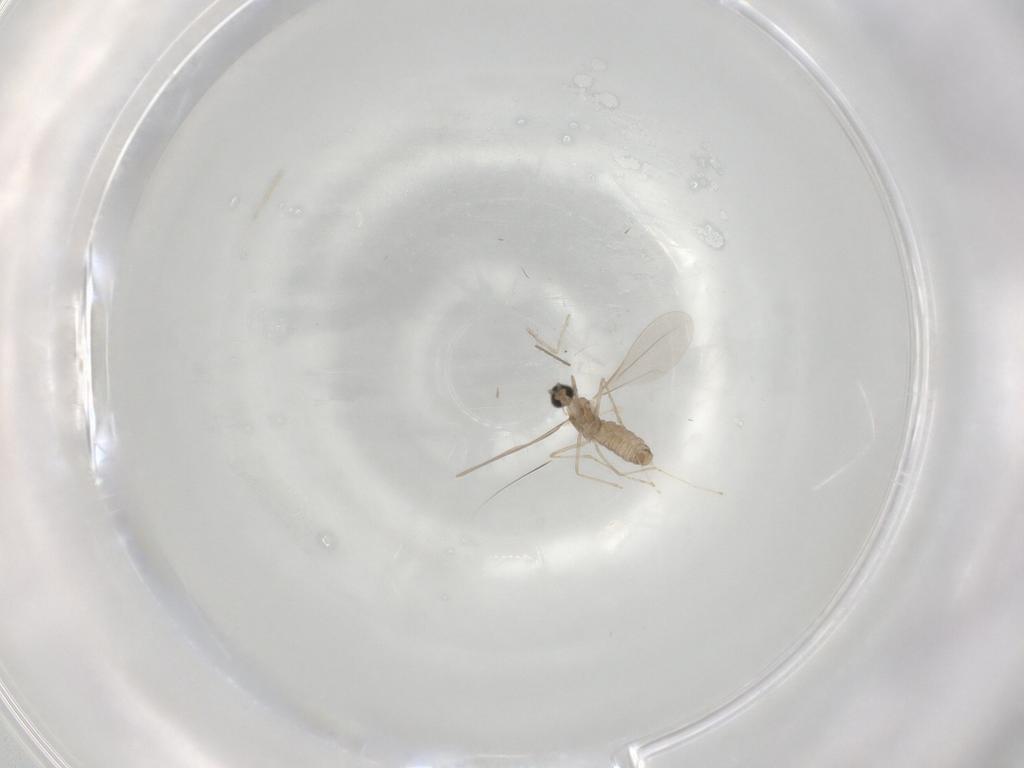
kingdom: Animalia
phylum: Arthropoda
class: Insecta
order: Diptera
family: Cecidomyiidae
